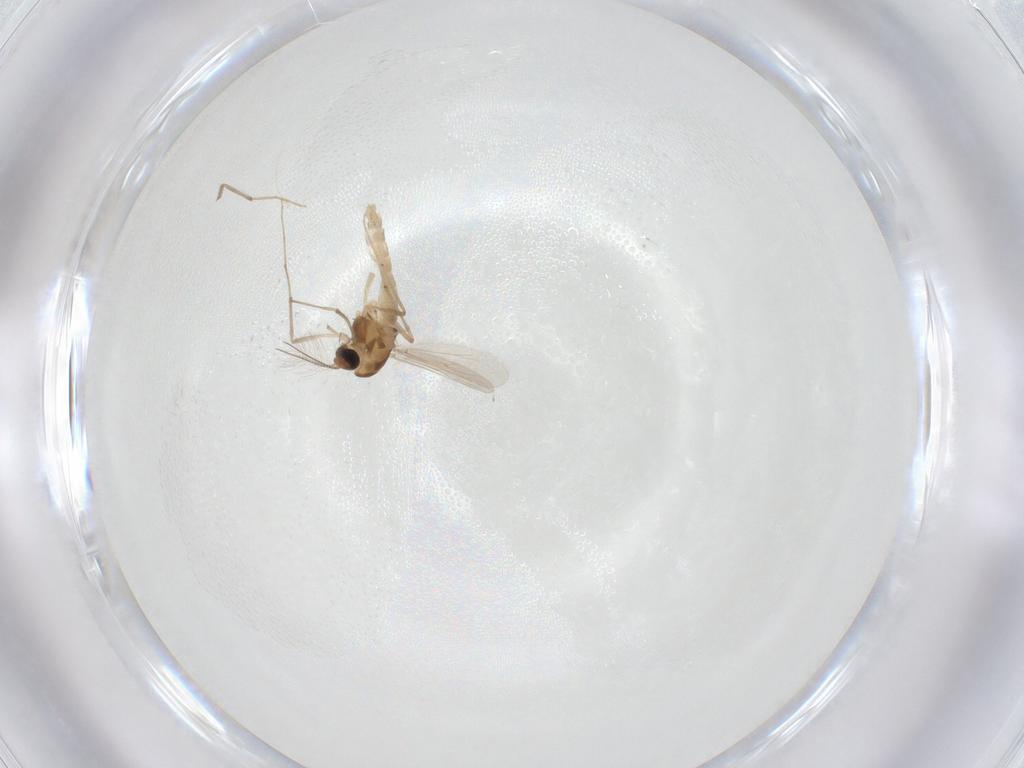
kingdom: Animalia
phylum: Arthropoda
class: Insecta
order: Diptera
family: Chironomidae
